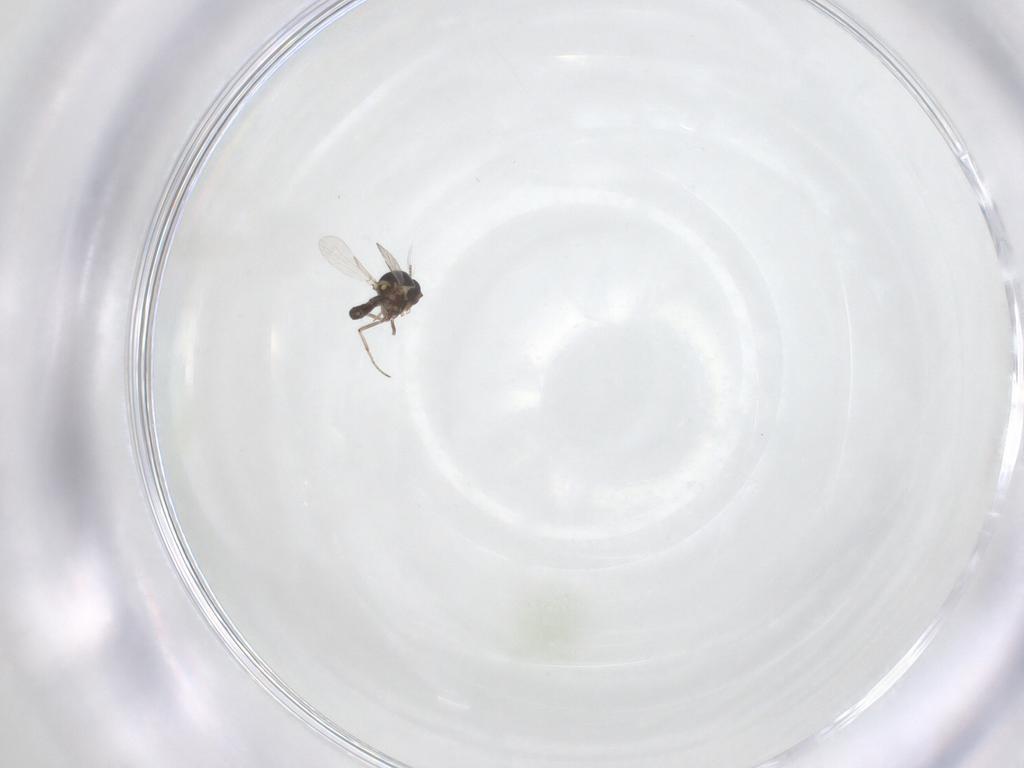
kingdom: Animalia
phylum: Arthropoda
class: Insecta
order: Diptera
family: Ceratopogonidae
